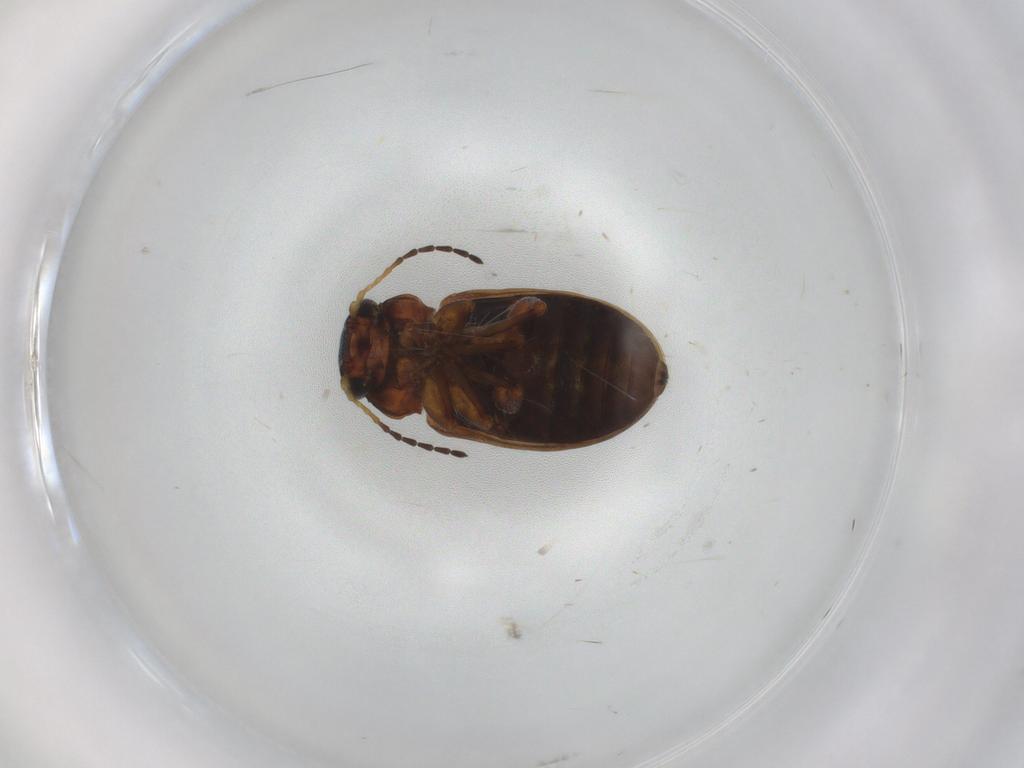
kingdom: Animalia
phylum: Arthropoda
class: Insecta
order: Coleoptera
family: Chrysomelidae
